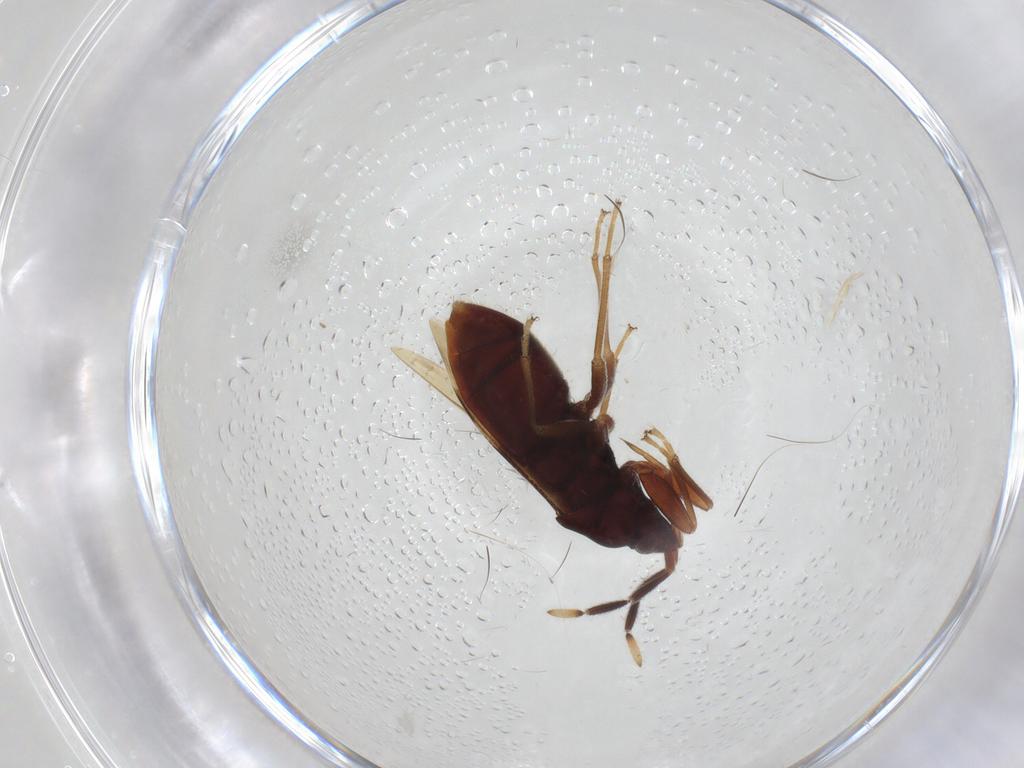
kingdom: Animalia
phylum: Arthropoda
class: Insecta
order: Hemiptera
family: Rhyparochromidae
